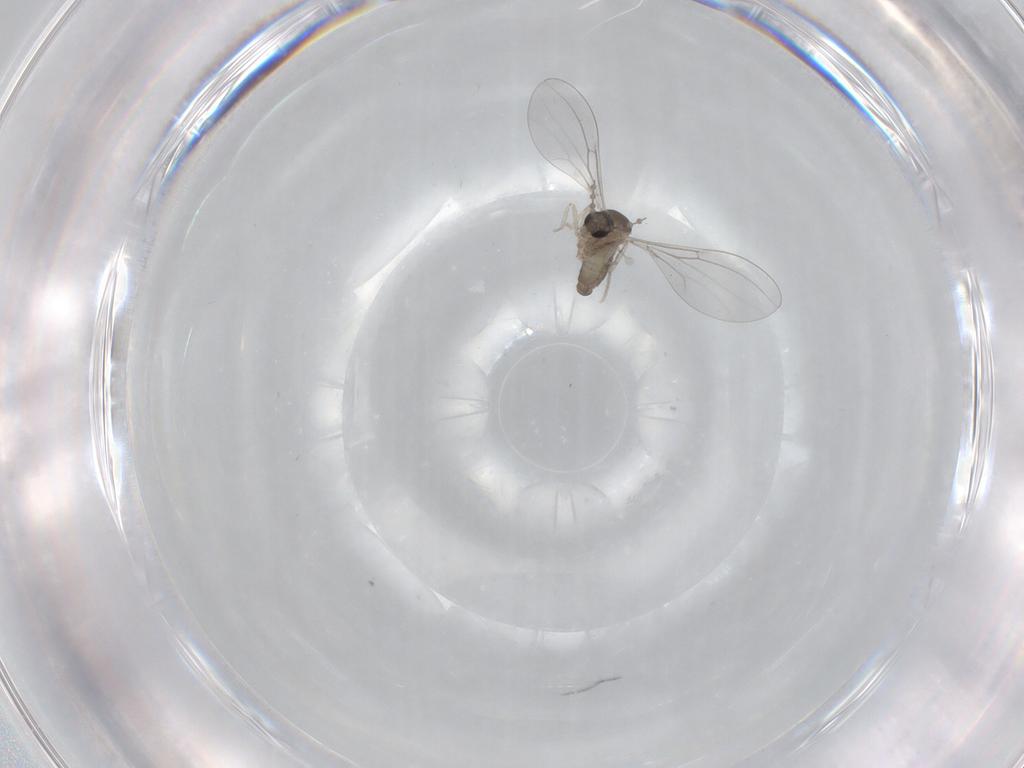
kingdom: Animalia
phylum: Arthropoda
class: Insecta
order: Diptera
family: Cecidomyiidae
